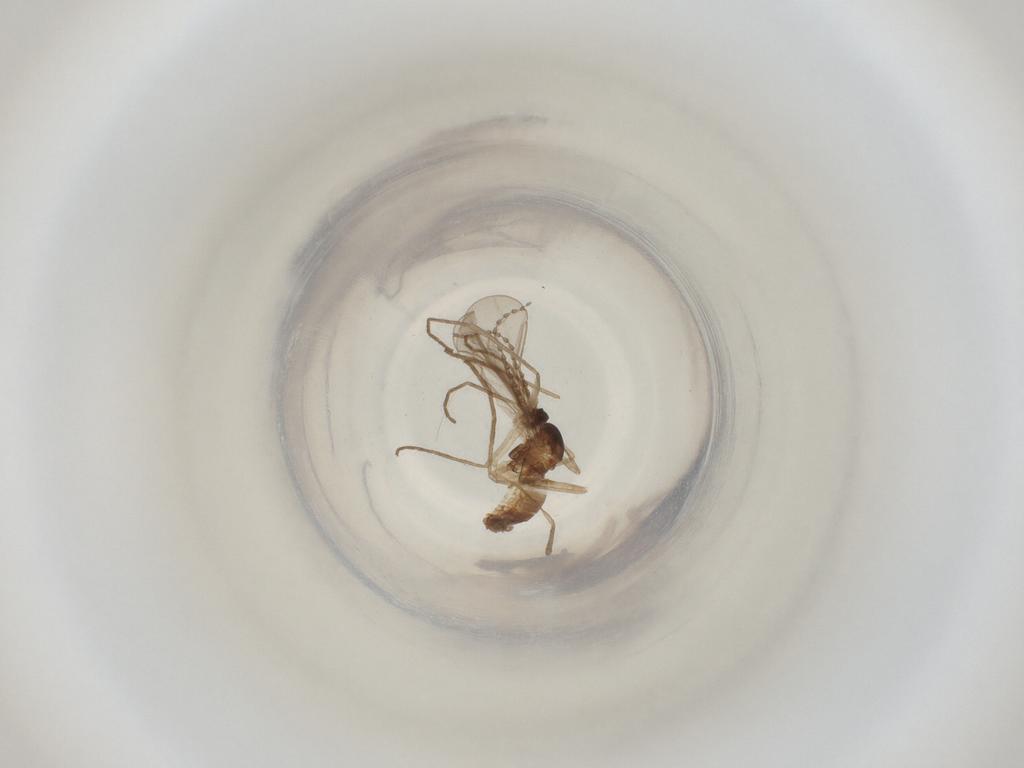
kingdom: Animalia
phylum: Arthropoda
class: Insecta
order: Diptera
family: Cecidomyiidae
